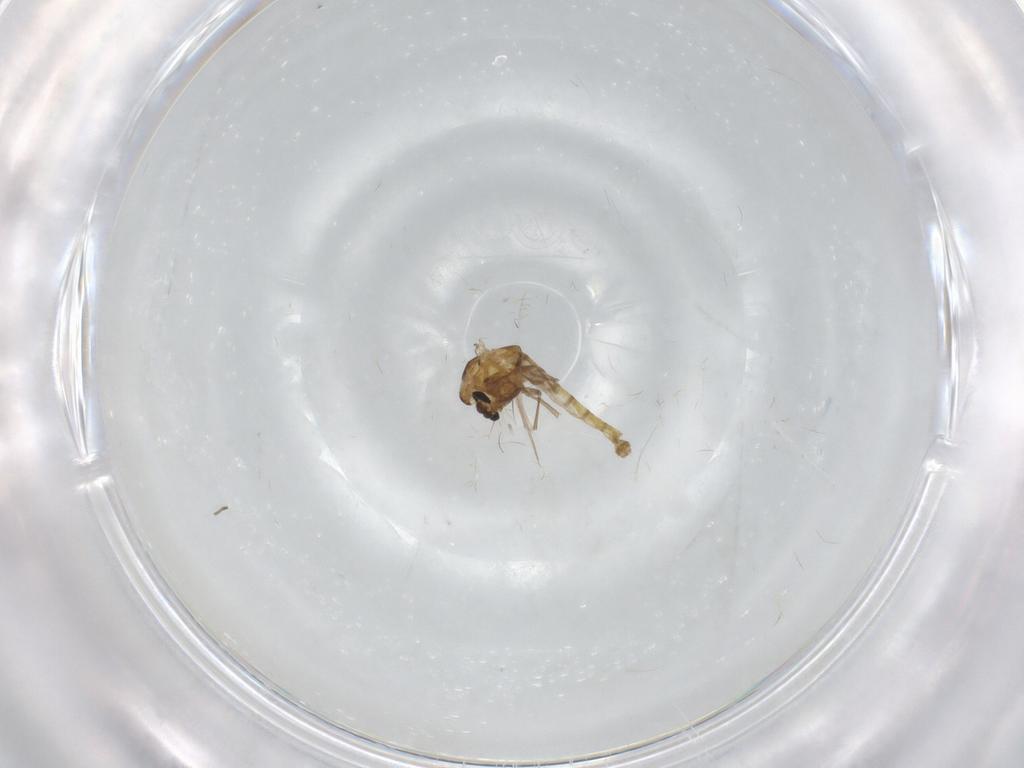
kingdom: Animalia
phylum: Arthropoda
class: Insecta
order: Diptera
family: Chironomidae
